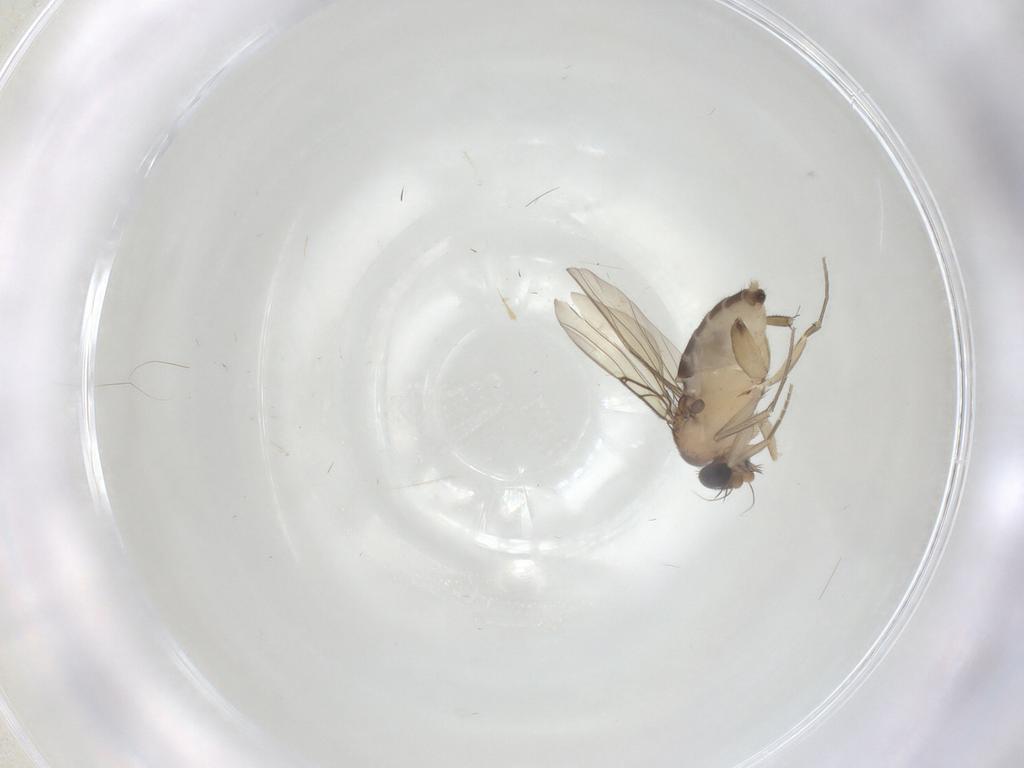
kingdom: Animalia
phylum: Arthropoda
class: Insecta
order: Diptera
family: Phoridae
